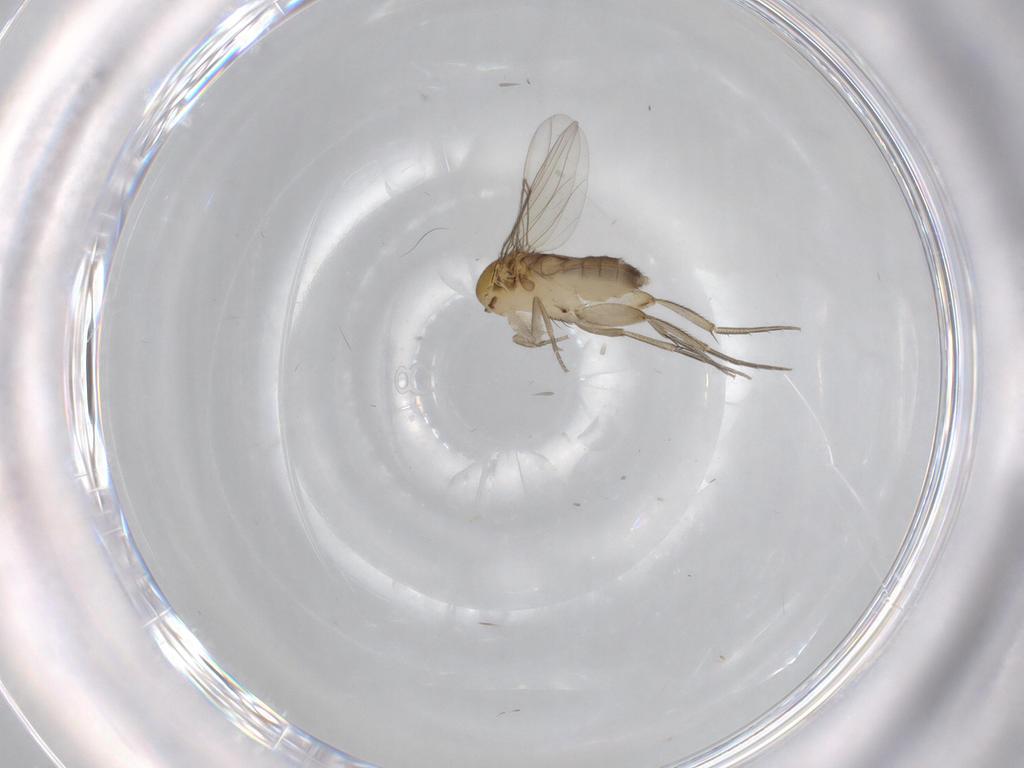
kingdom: Animalia
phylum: Arthropoda
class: Insecta
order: Diptera
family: Phoridae
